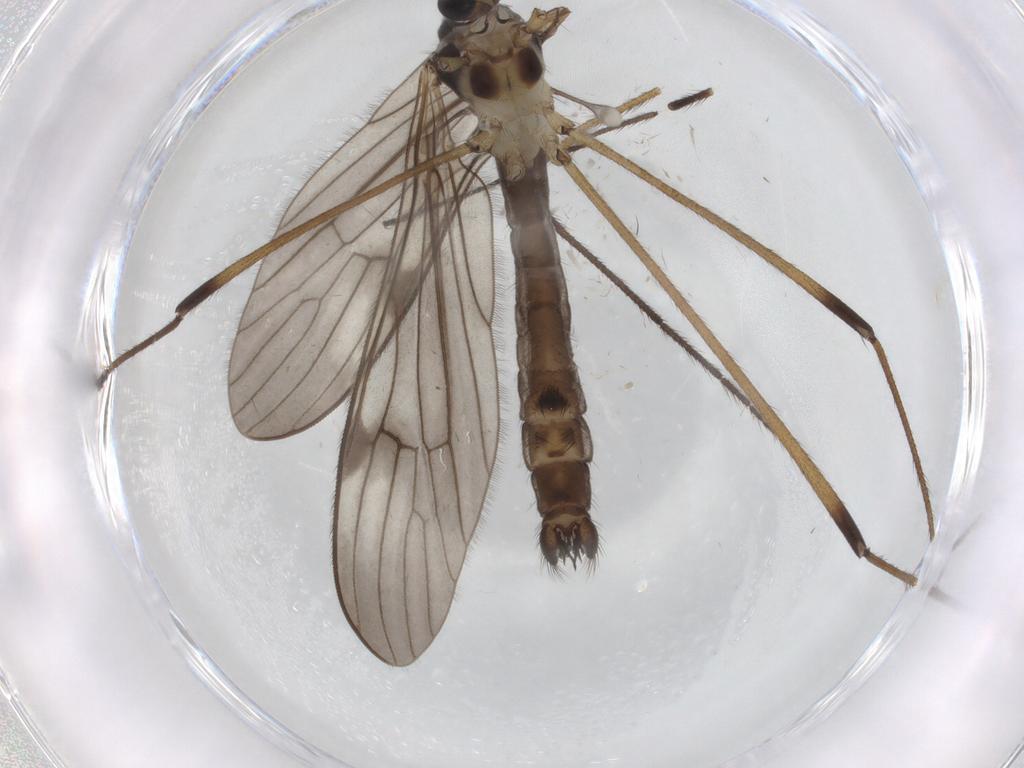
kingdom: Animalia
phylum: Arthropoda
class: Insecta
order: Diptera
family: Limoniidae
